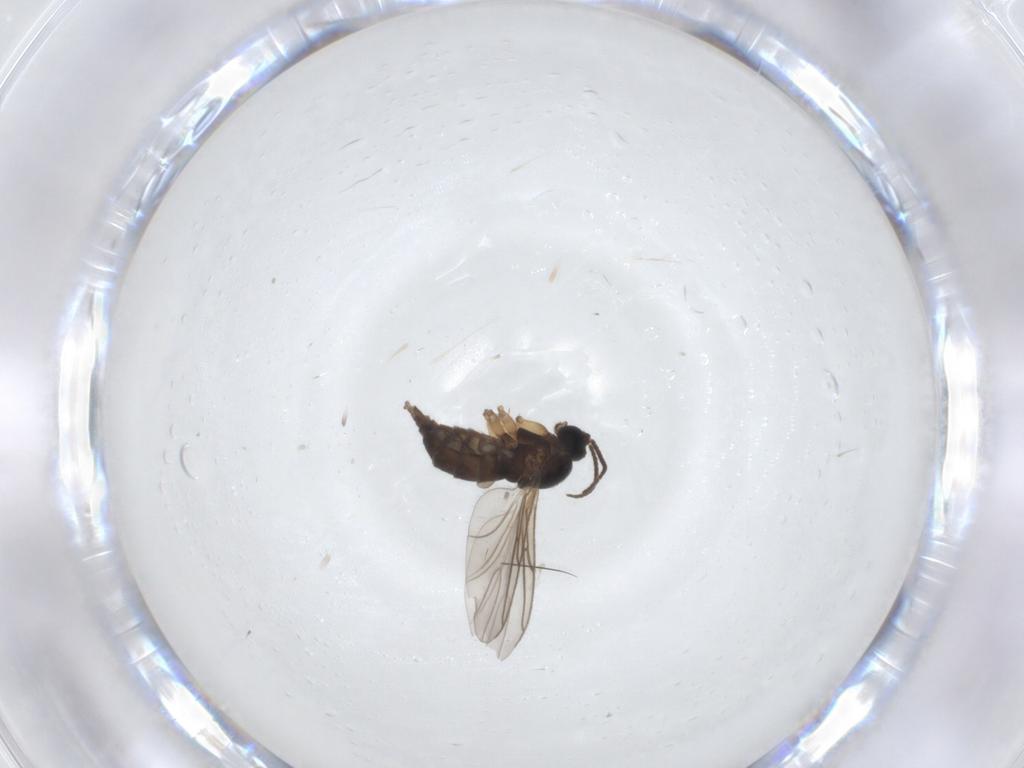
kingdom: Animalia
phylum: Arthropoda
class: Insecta
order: Diptera
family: Sciaridae
